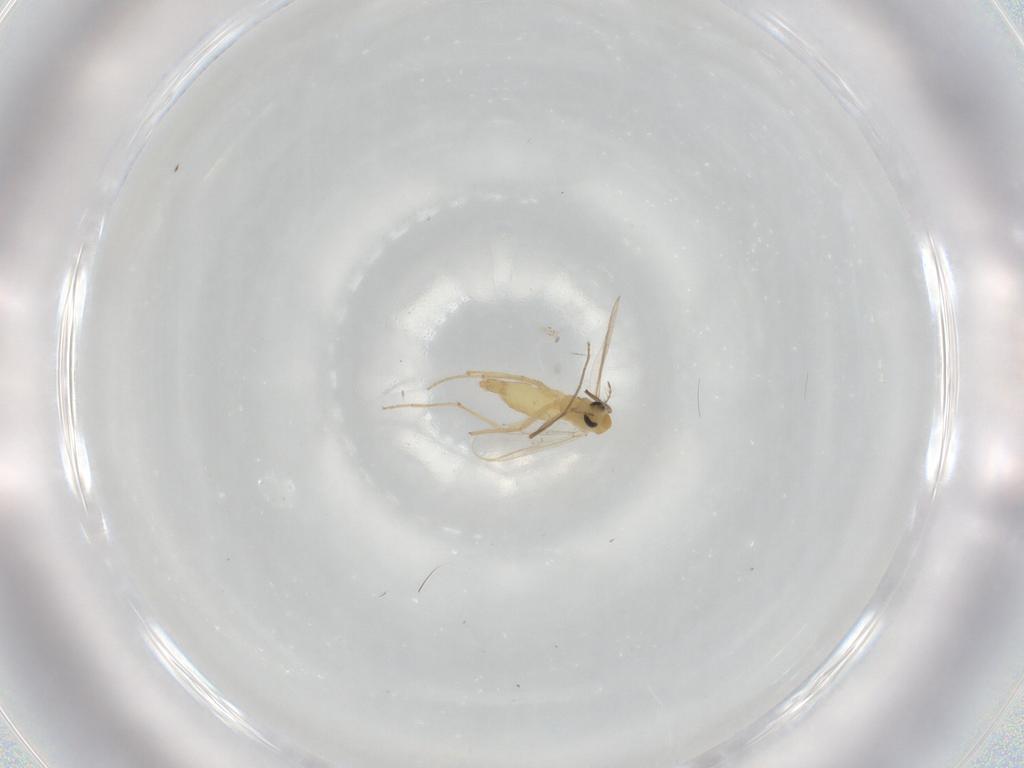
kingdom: Animalia
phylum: Arthropoda
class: Insecta
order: Diptera
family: Chironomidae
